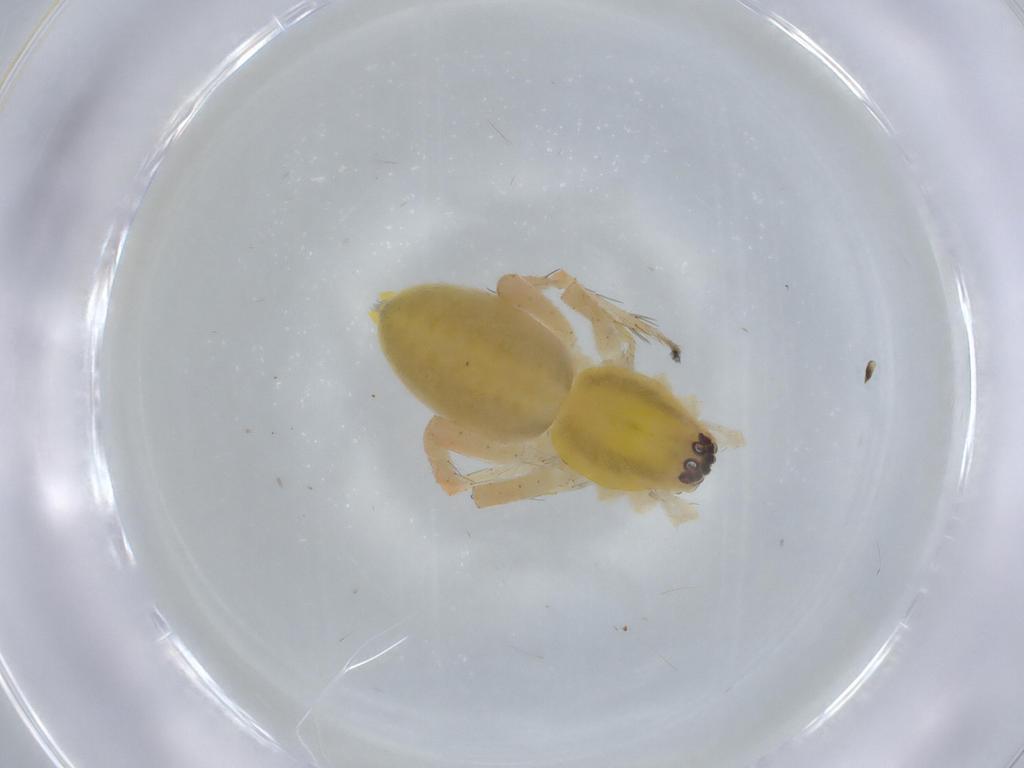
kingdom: Animalia
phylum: Arthropoda
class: Arachnida
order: Araneae
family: Anyphaenidae
